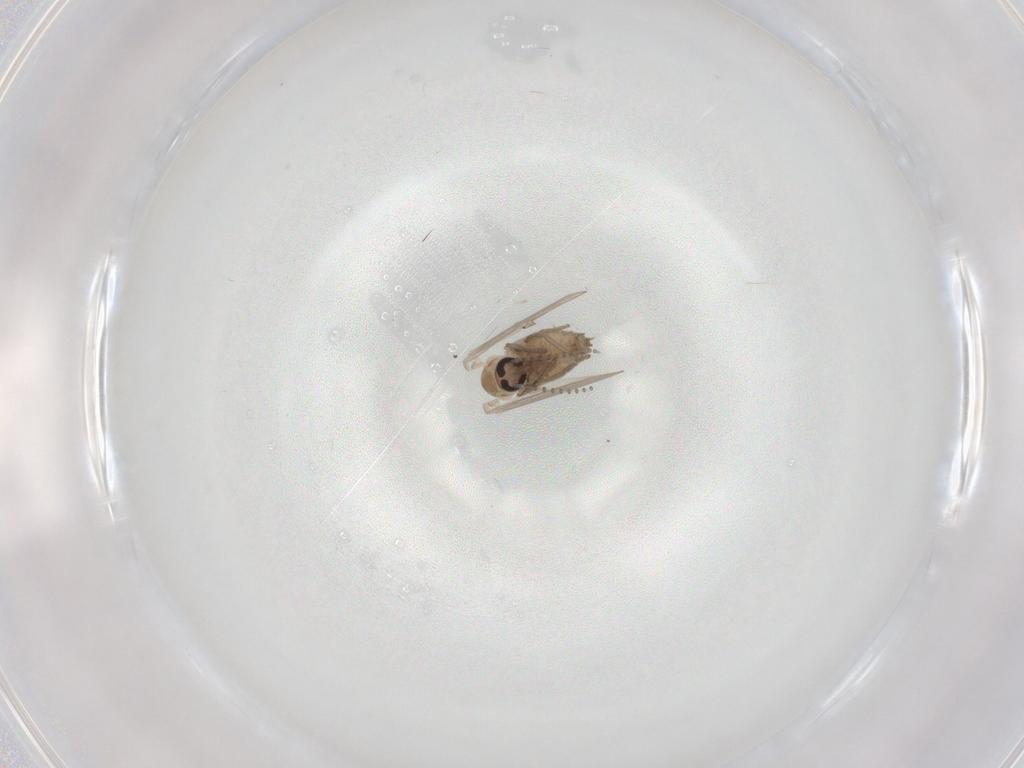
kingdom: Animalia
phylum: Arthropoda
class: Insecta
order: Diptera
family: Psychodidae
